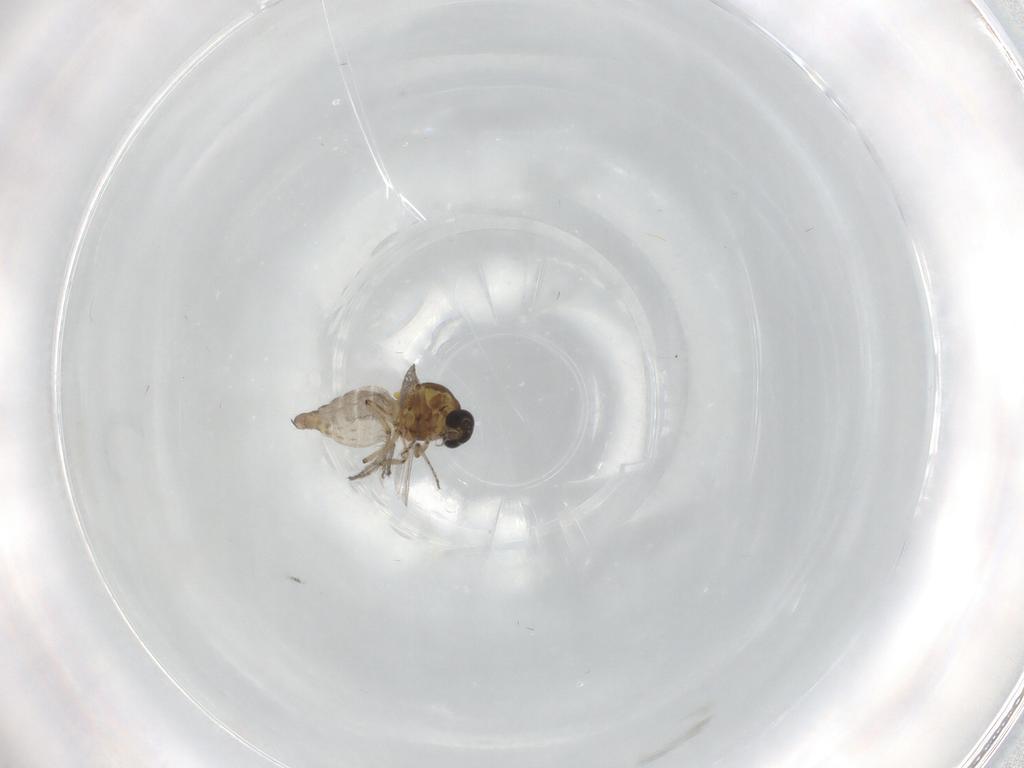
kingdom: Animalia
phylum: Arthropoda
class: Insecta
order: Diptera
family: Ceratopogonidae
